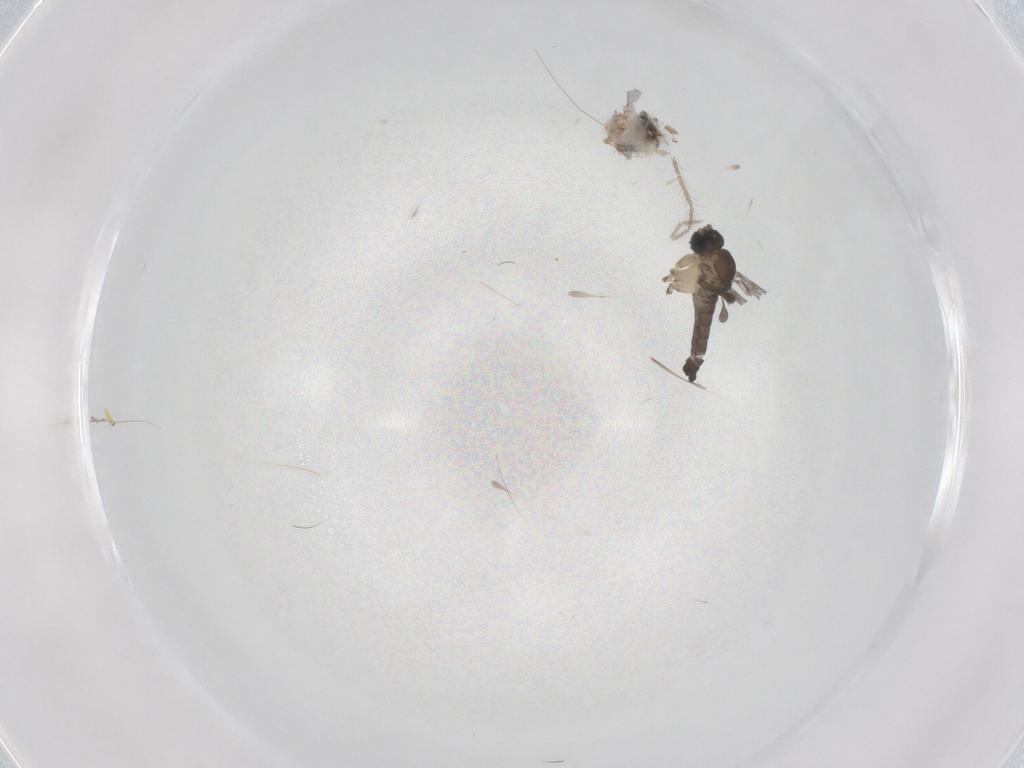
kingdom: Animalia
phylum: Arthropoda
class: Insecta
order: Diptera
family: Sciaridae
